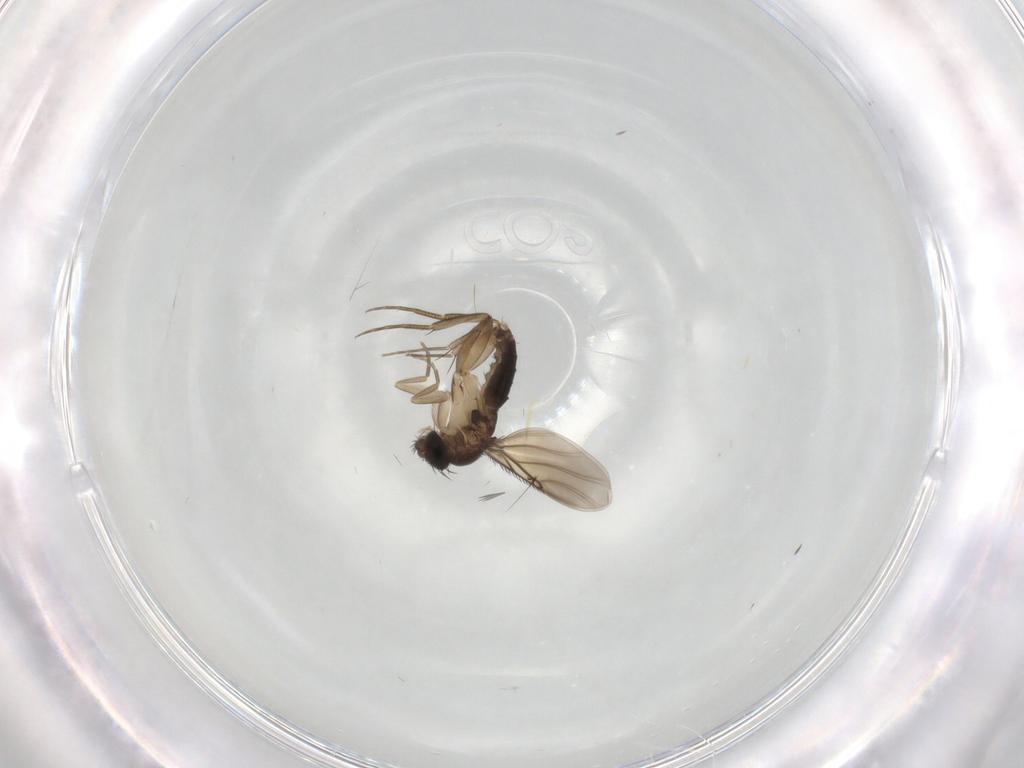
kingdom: Animalia
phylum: Arthropoda
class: Insecta
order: Diptera
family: Phoridae
